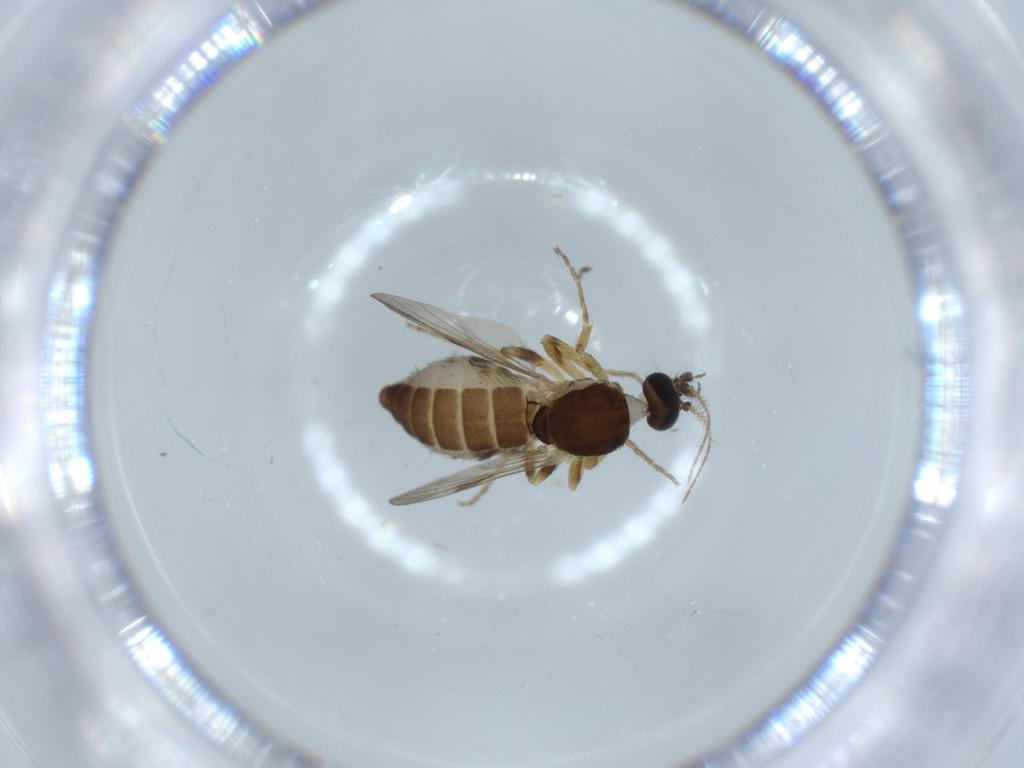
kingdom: Animalia
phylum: Arthropoda
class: Insecta
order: Diptera
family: Ceratopogonidae
